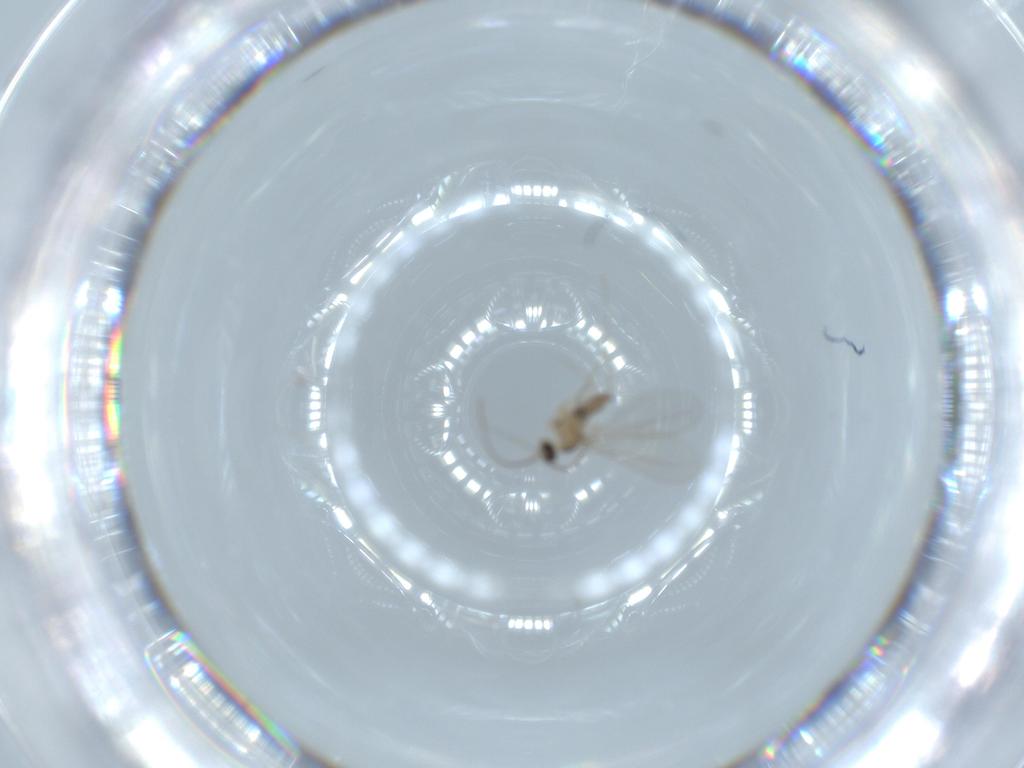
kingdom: Animalia
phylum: Arthropoda
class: Insecta
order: Diptera
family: Cecidomyiidae
